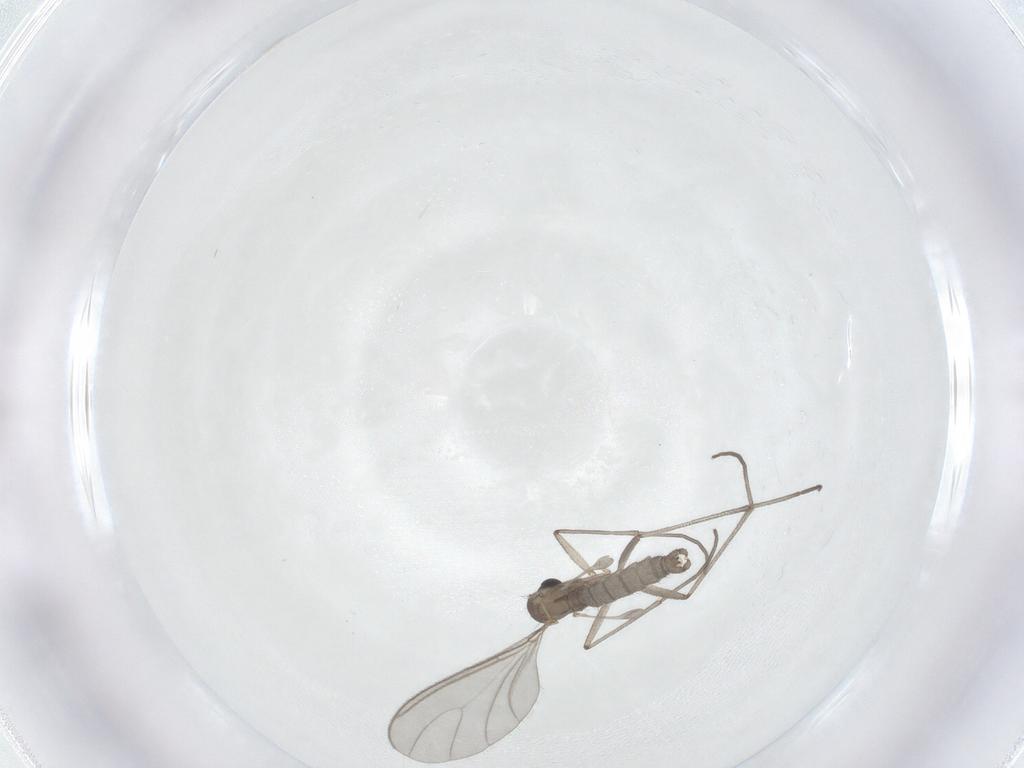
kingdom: Animalia
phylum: Arthropoda
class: Insecta
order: Diptera
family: Sciaridae
